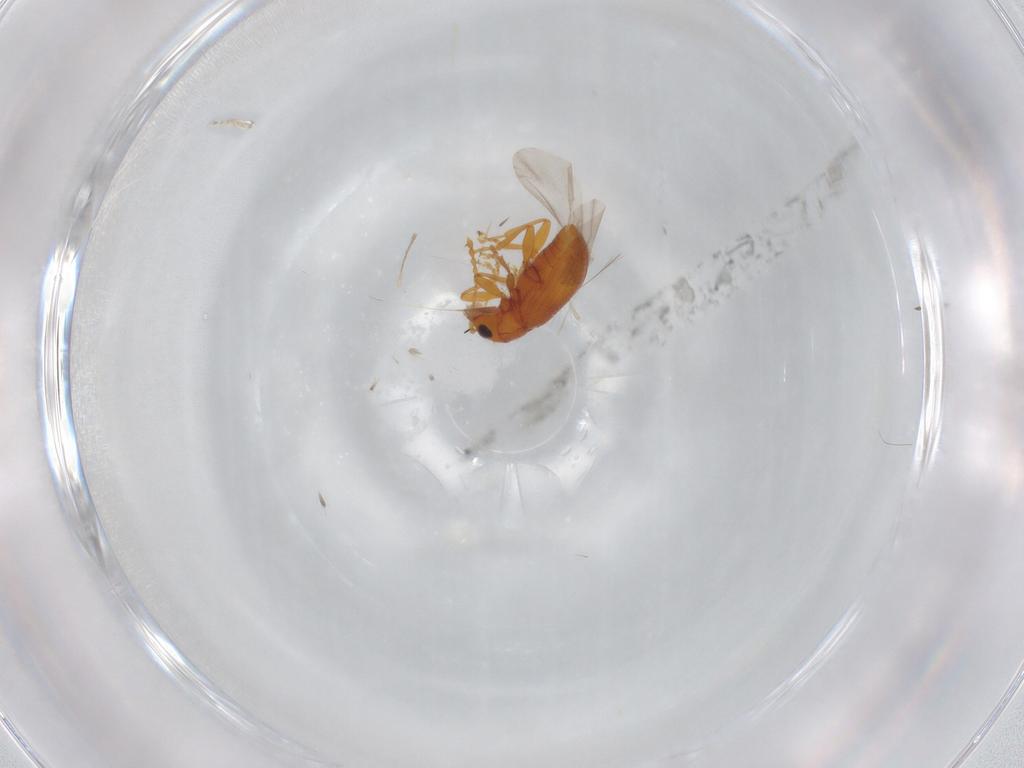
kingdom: Animalia
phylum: Arthropoda
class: Insecta
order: Coleoptera
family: Chrysomelidae
